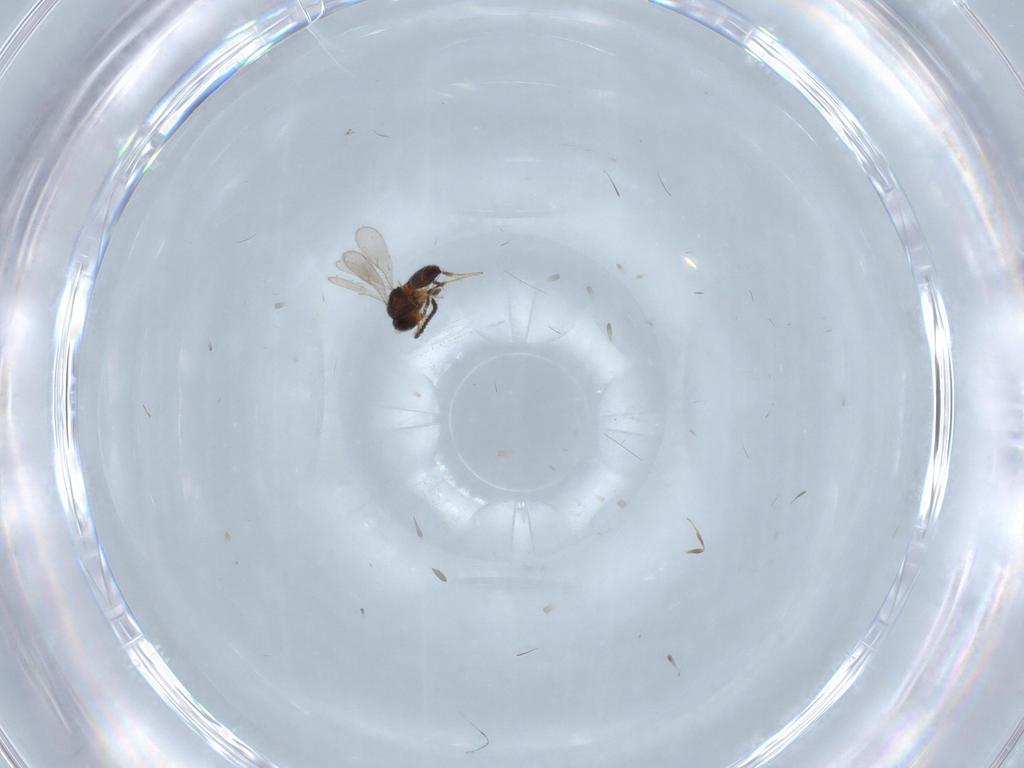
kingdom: Animalia
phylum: Arthropoda
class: Insecta
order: Hymenoptera
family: Scelionidae
